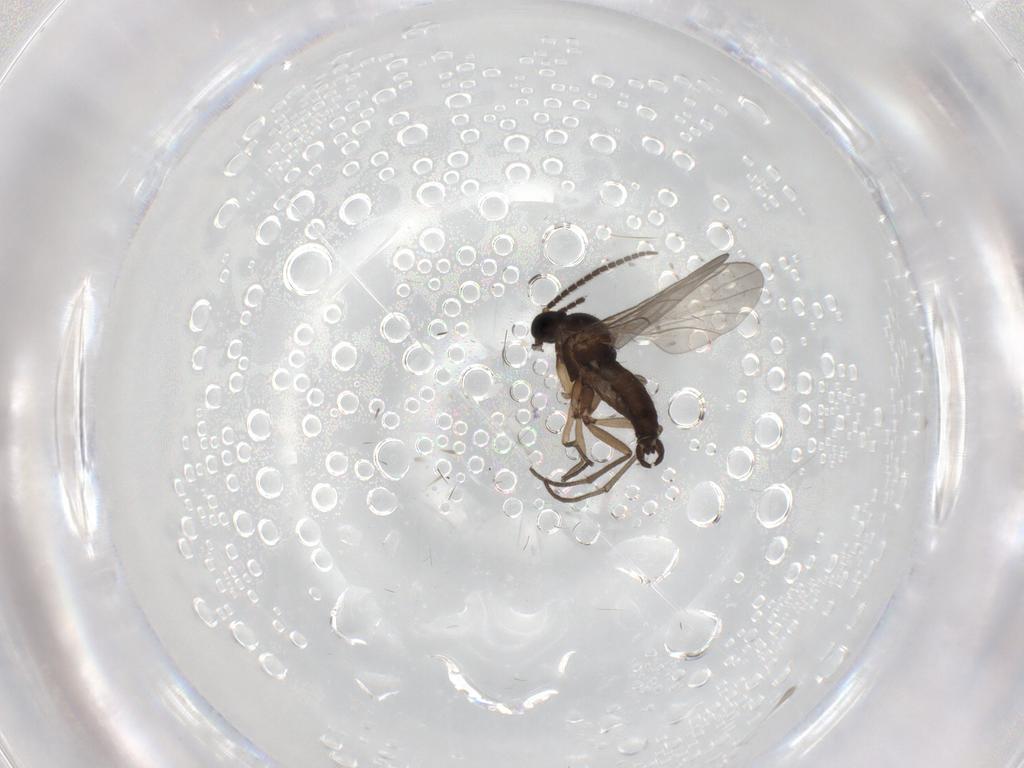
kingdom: Animalia
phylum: Arthropoda
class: Insecta
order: Diptera
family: Sciaridae
